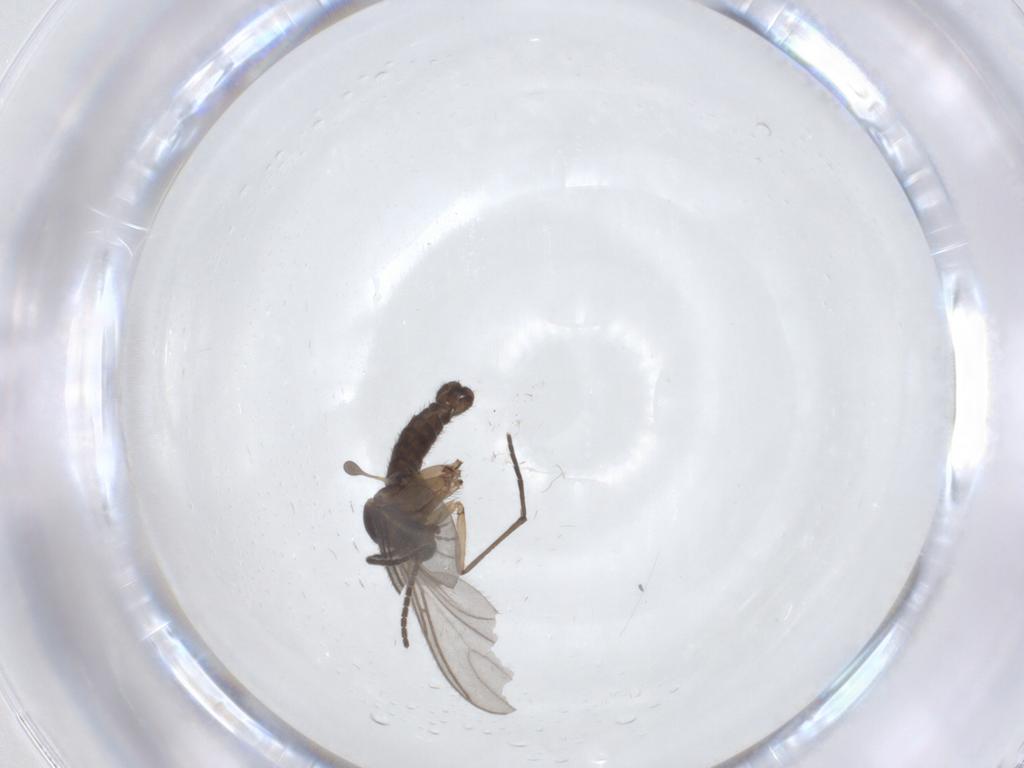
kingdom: Animalia
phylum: Arthropoda
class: Insecta
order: Diptera
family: Sciaridae
